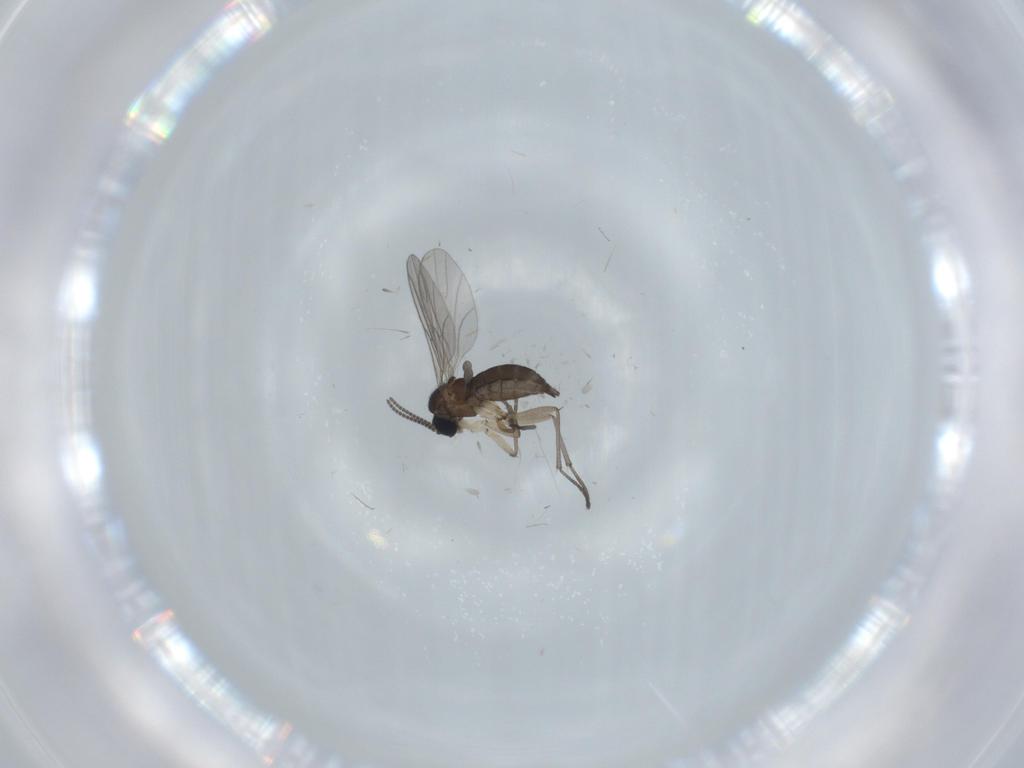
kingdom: Animalia
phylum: Arthropoda
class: Insecta
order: Diptera
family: Sciaridae
